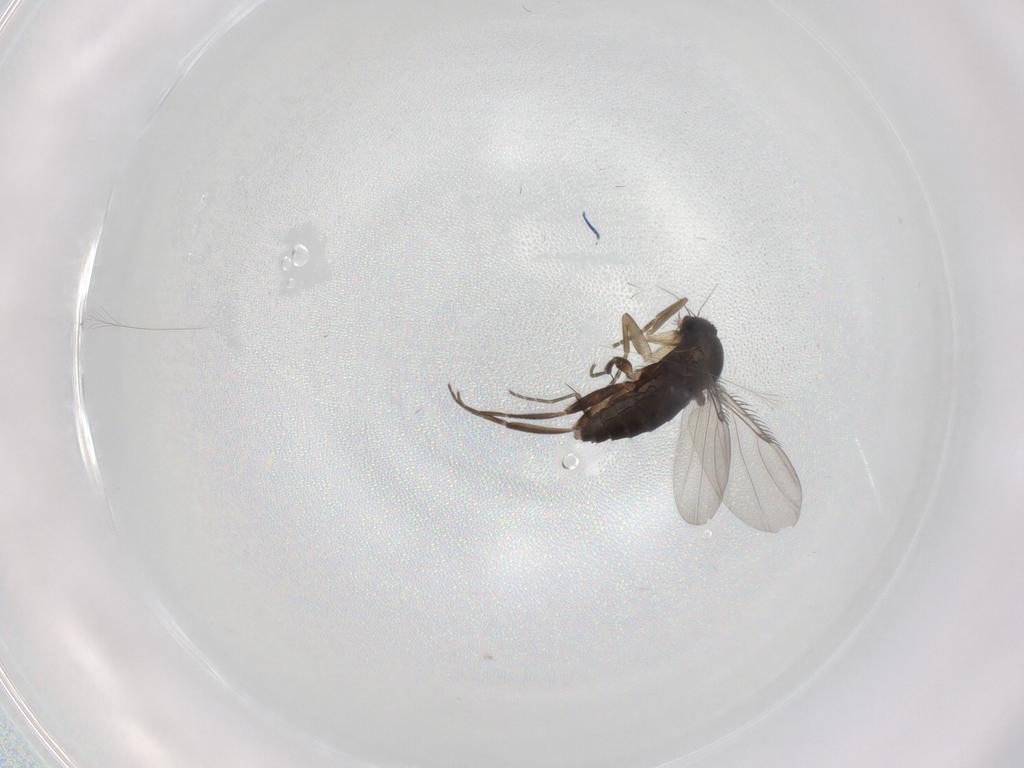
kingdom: Animalia
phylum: Arthropoda
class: Insecta
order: Diptera
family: Phoridae
